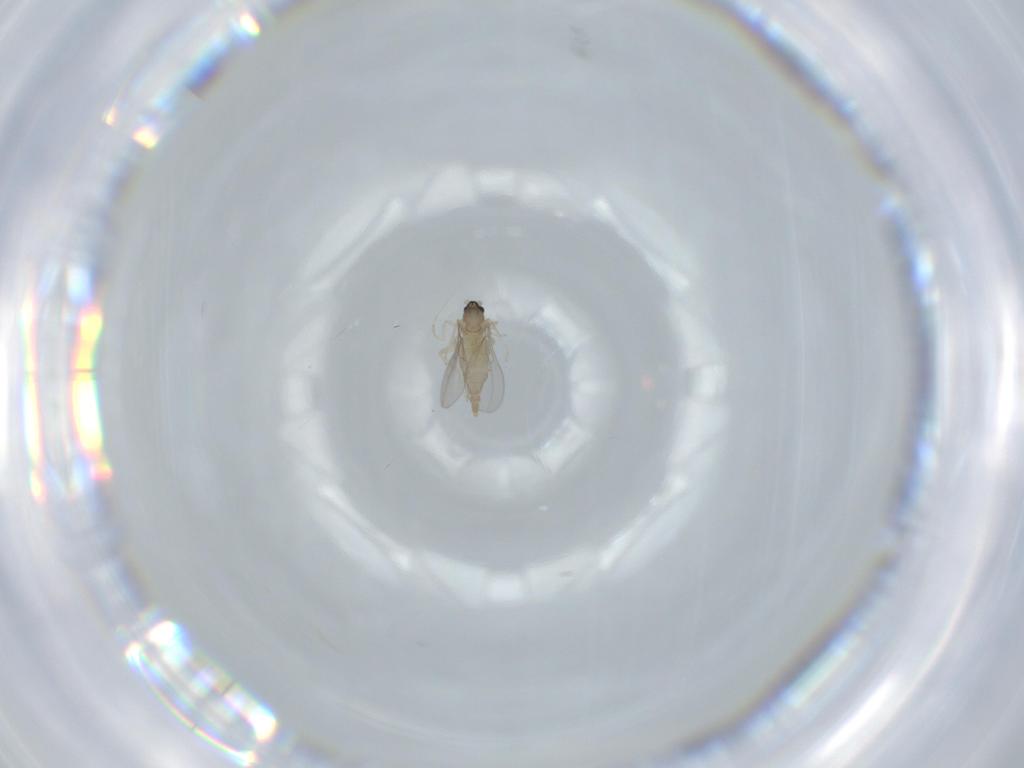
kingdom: Animalia
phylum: Arthropoda
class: Insecta
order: Diptera
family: Cecidomyiidae
